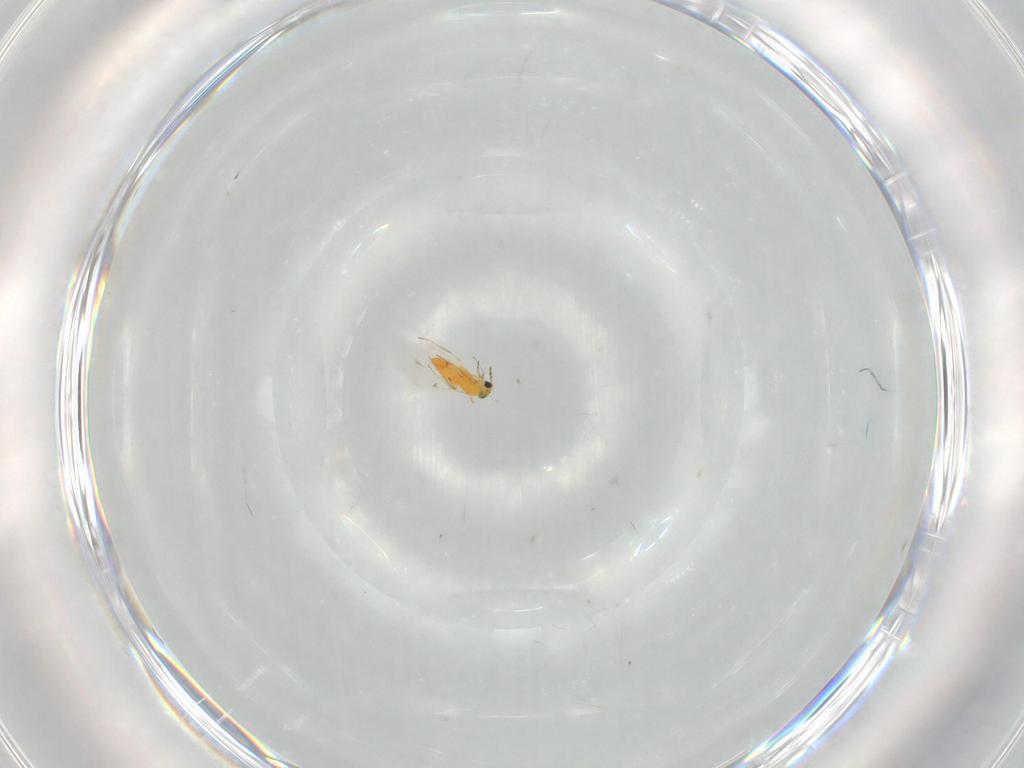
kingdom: Animalia
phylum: Arthropoda
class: Insecta
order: Hymenoptera
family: Trichogrammatidae
